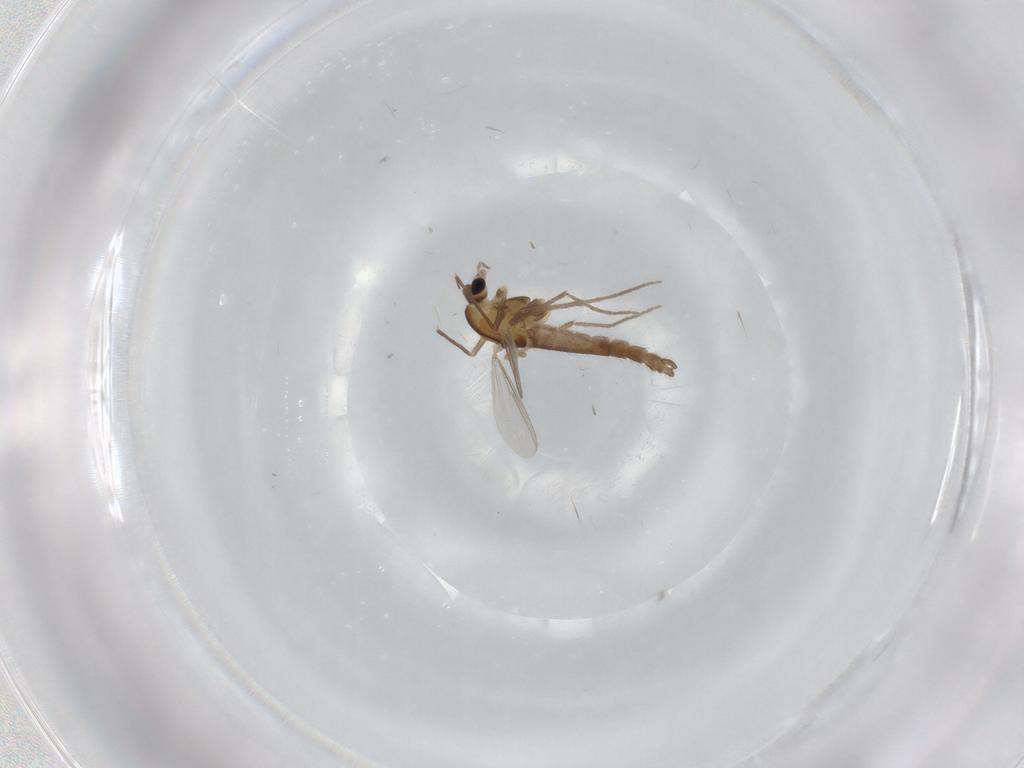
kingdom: Animalia
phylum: Arthropoda
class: Insecta
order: Diptera
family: Chironomidae
